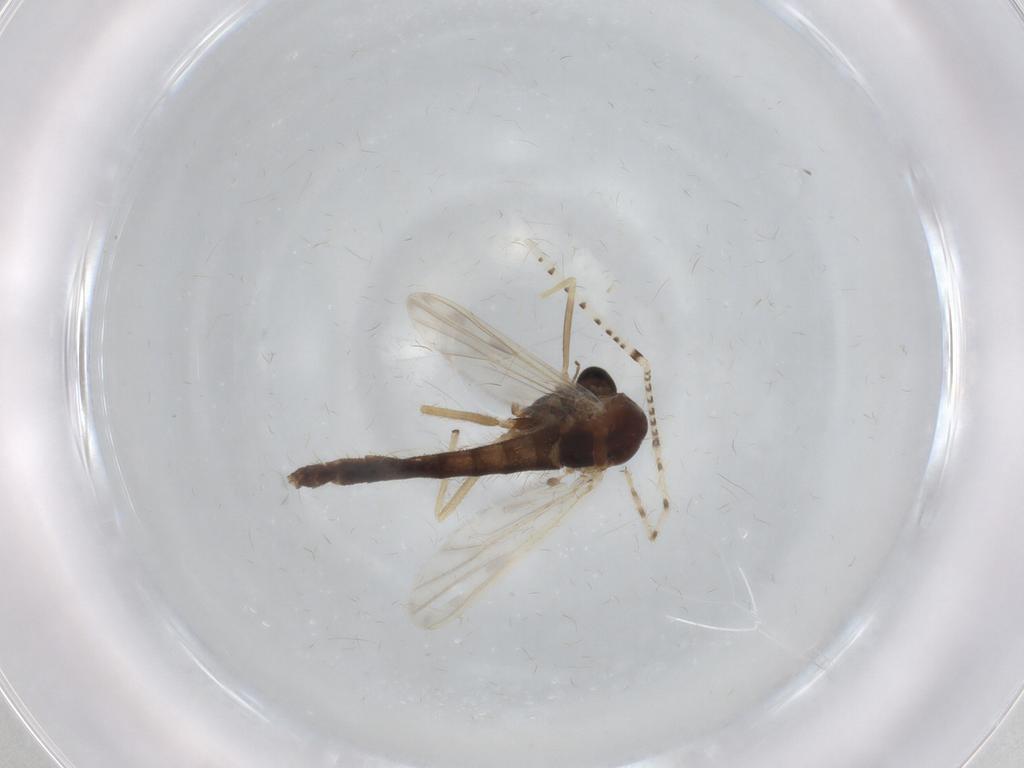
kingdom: Animalia
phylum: Arthropoda
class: Insecta
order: Diptera
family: Chironomidae
